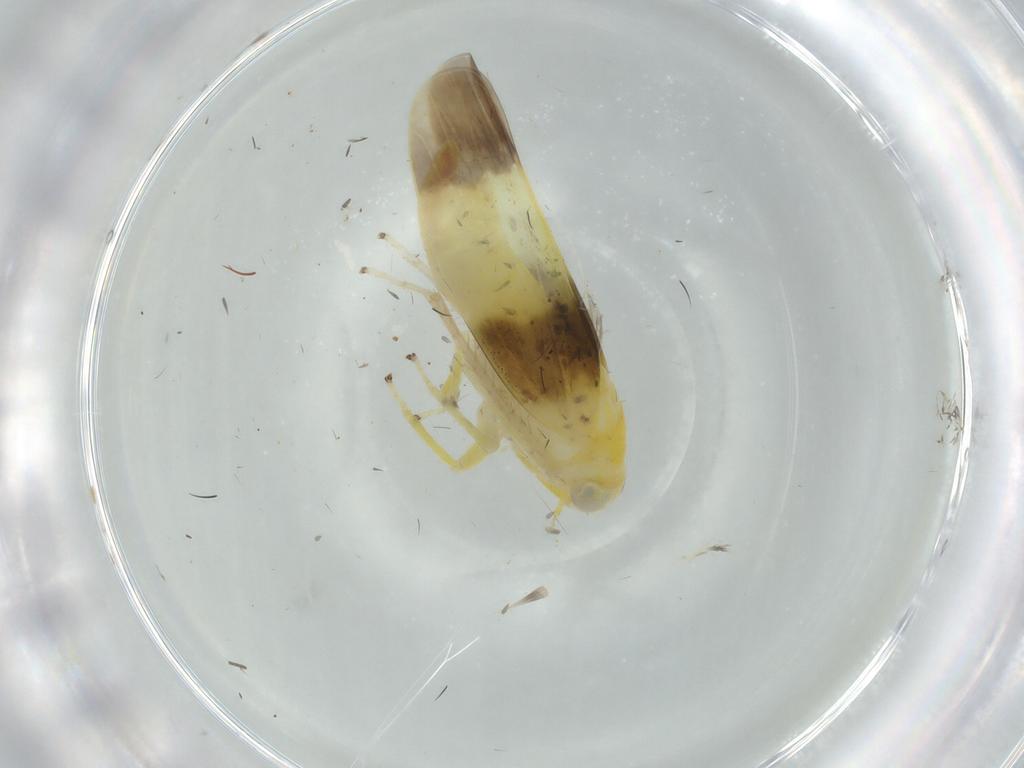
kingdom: Animalia
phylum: Arthropoda
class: Insecta
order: Hemiptera
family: Cicadellidae
